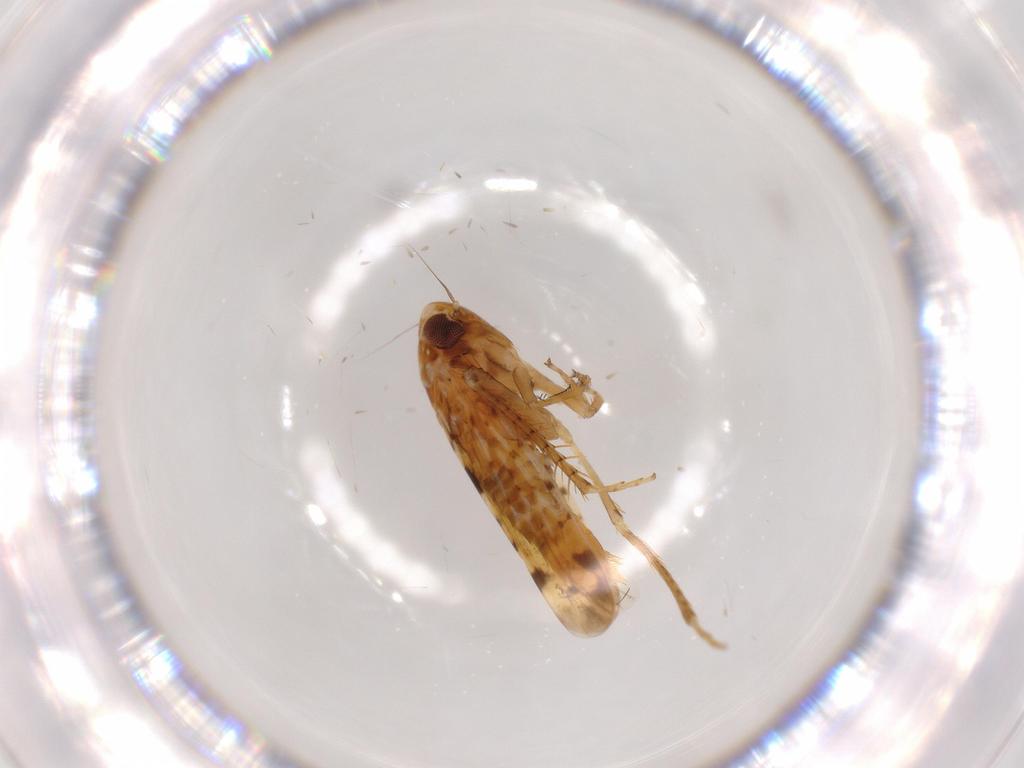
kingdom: Animalia
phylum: Arthropoda
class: Insecta
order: Hemiptera
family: Cicadellidae
